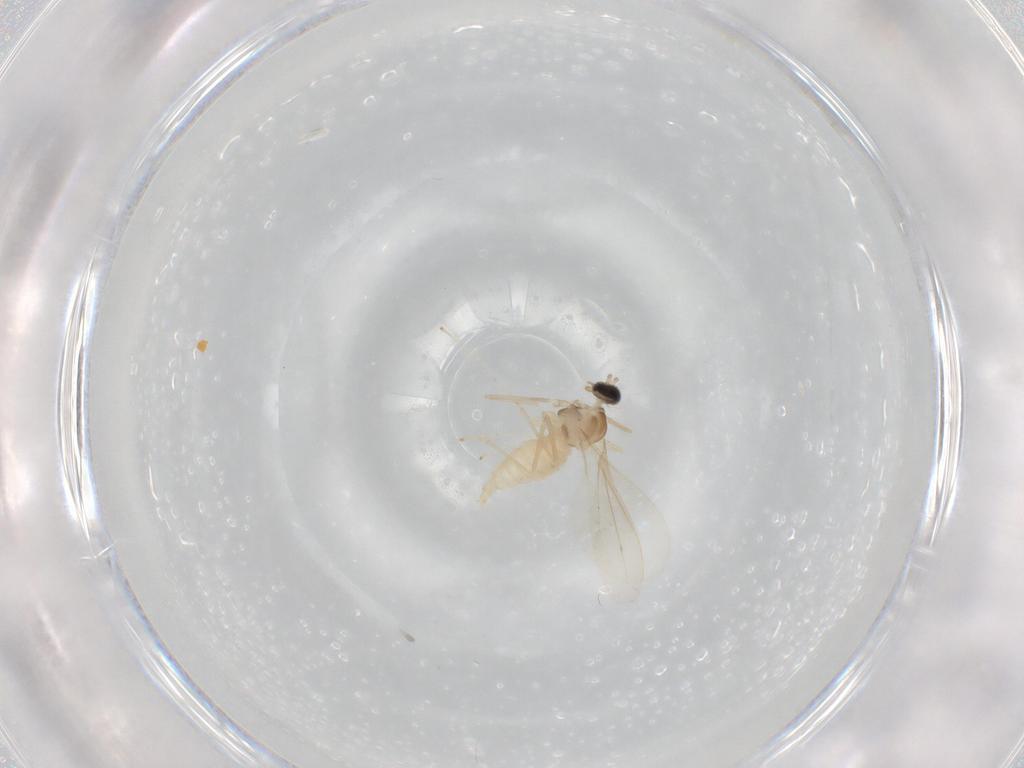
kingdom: Animalia
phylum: Arthropoda
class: Insecta
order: Diptera
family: Cecidomyiidae
